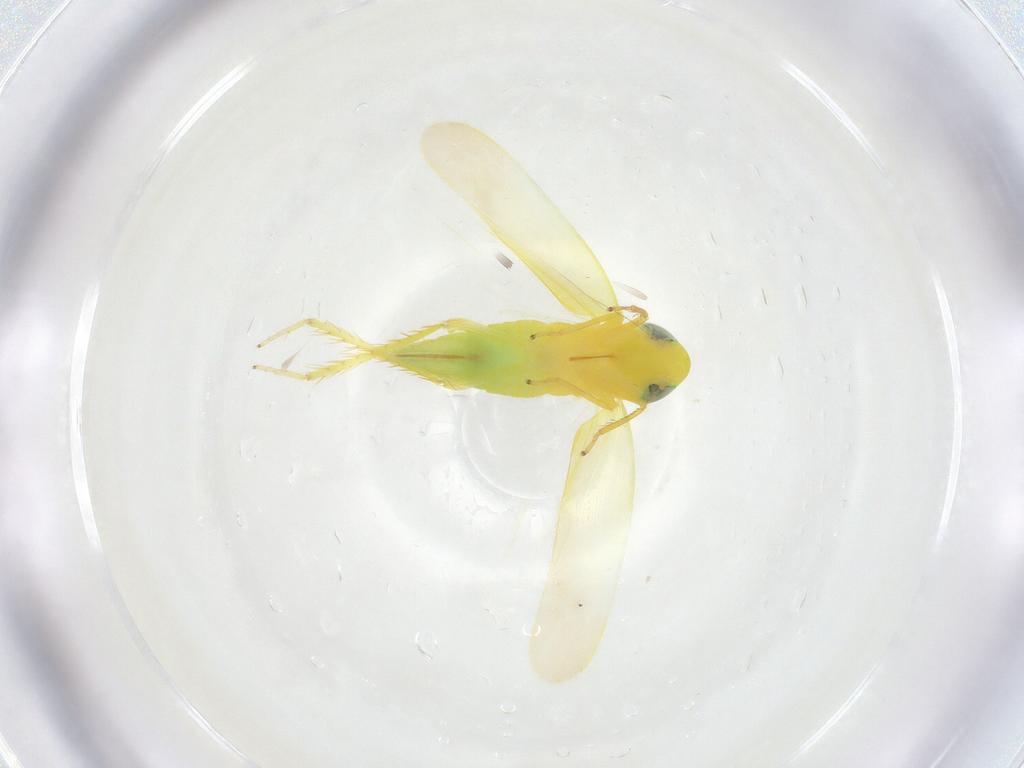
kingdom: Animalia
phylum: Arthropoda
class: Insecta
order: Hemiptera
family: Cicadellidae
